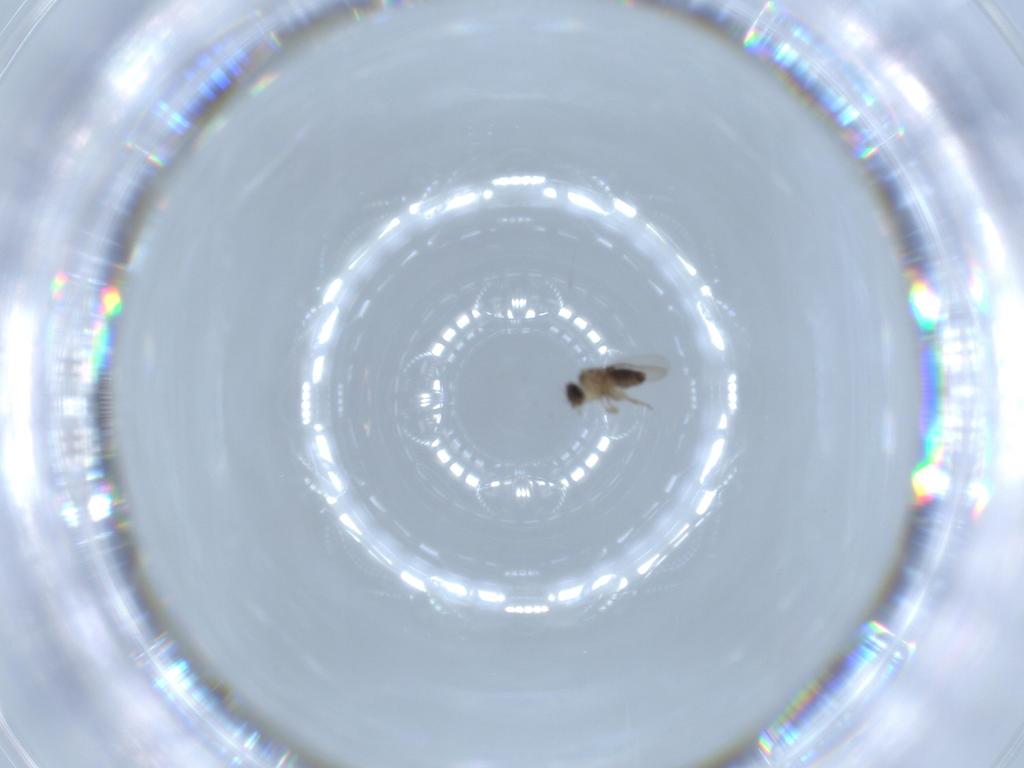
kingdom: Animalia
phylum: Arthropoda
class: Insecta
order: Diptera
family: Phoridae
